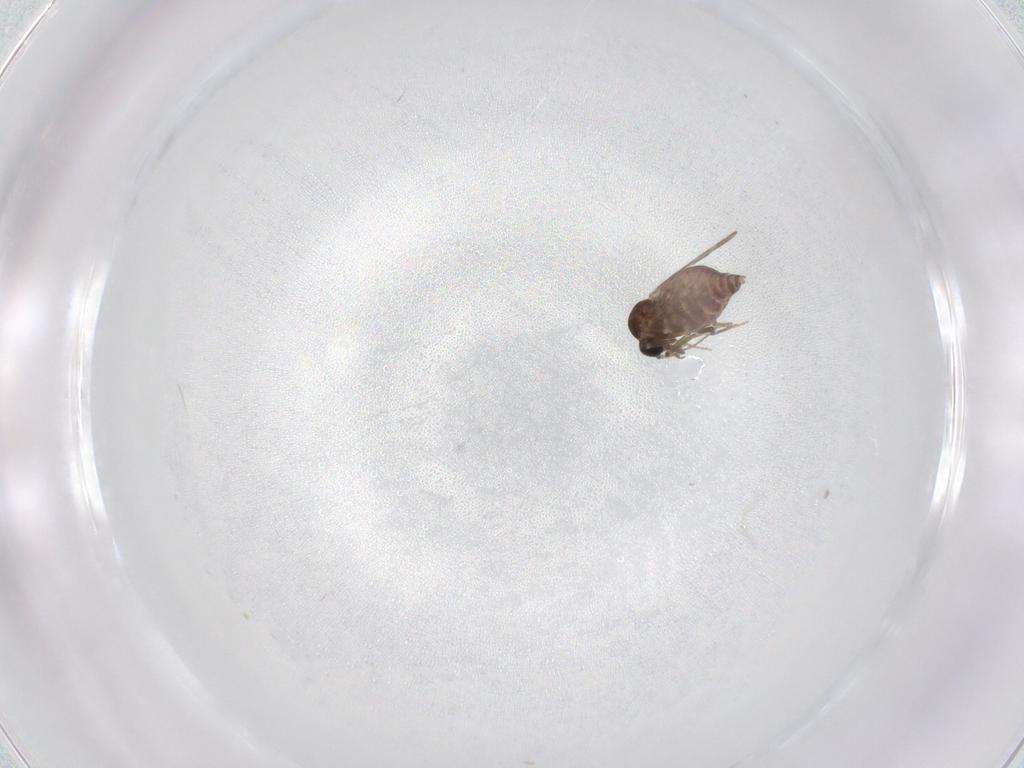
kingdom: Animalia
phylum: Arthropoda
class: Insecta
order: Diptera
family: Ceratopogonidae
